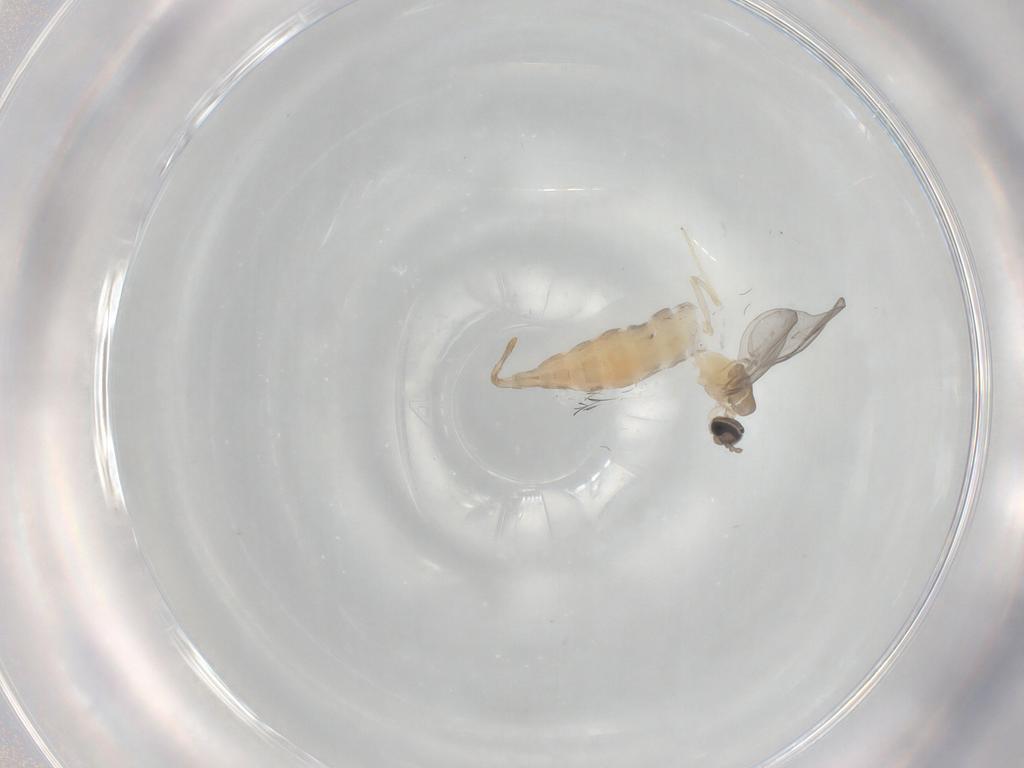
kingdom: Animalia
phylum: Arthropoda
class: Insecta
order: Diptera
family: Cecidomyiidae
